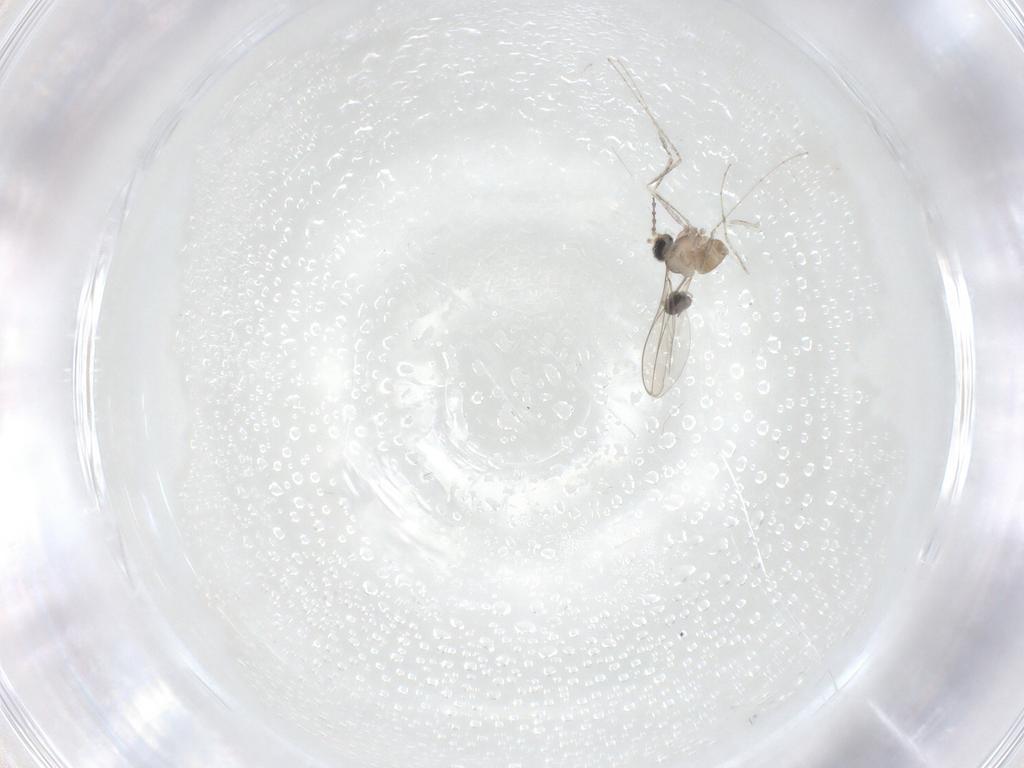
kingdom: Animalia
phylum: Arthropoda
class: Insecta
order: Diptera
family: Cecidomyiidae
